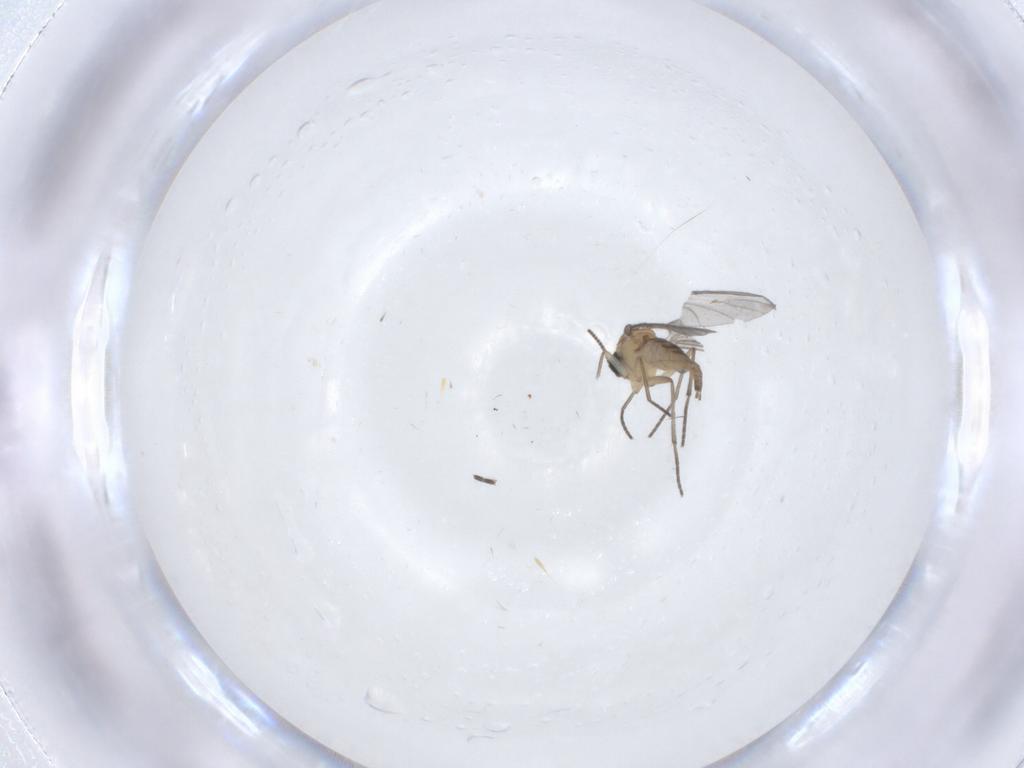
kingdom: Animalia
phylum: Arthropoda
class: Insecta
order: Diptera
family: Sciaridae
